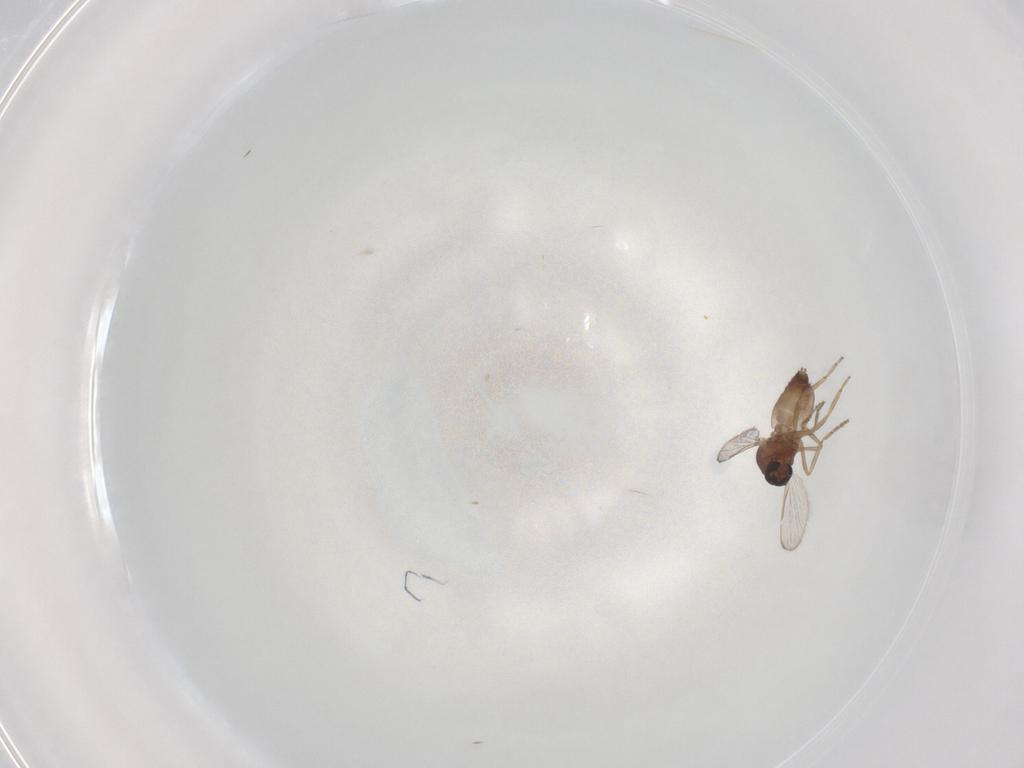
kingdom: Animalia
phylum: Arthropoda
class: Insecta
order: Diptera
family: Ceratopogonidae
